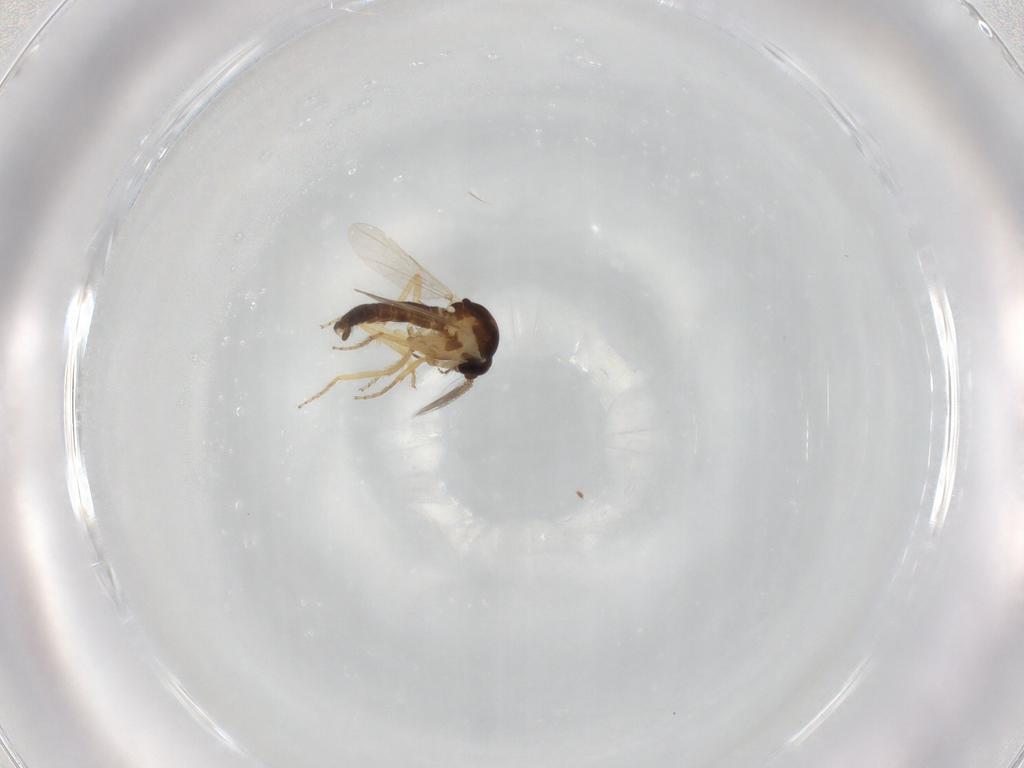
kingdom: Animalia
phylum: Arthropoda
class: Insecta
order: Diptera
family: Ceratopogonidae
